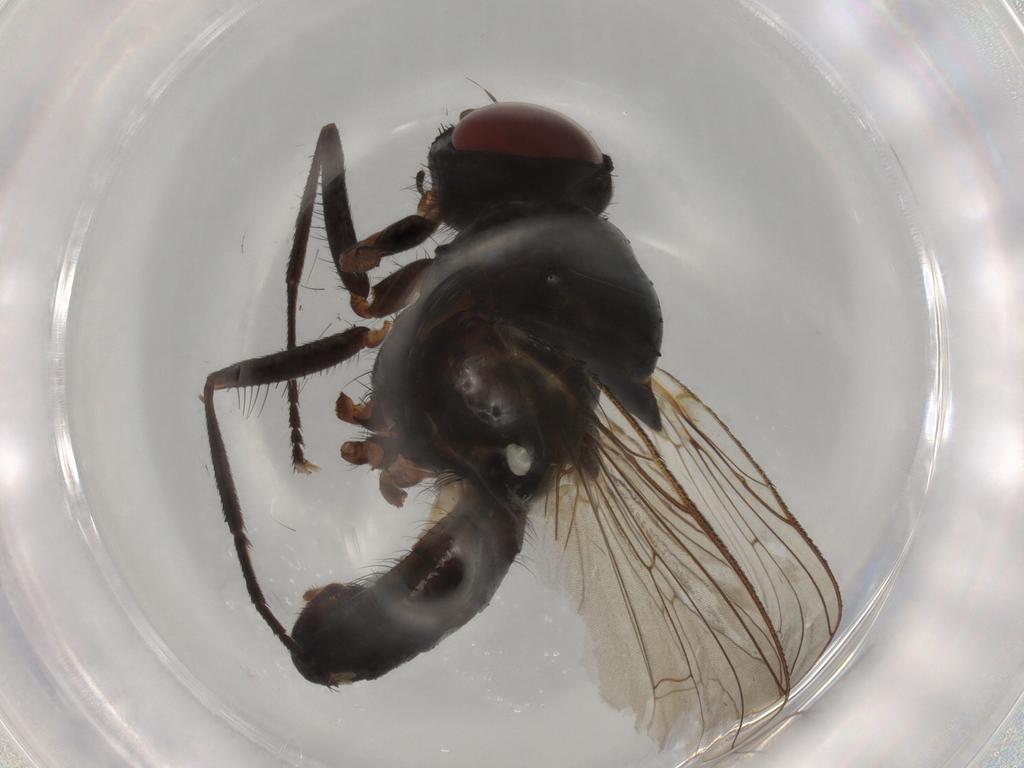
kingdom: Animalia
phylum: Arthropoda
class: Insecta
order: Diptera
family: Anthomyiidae
